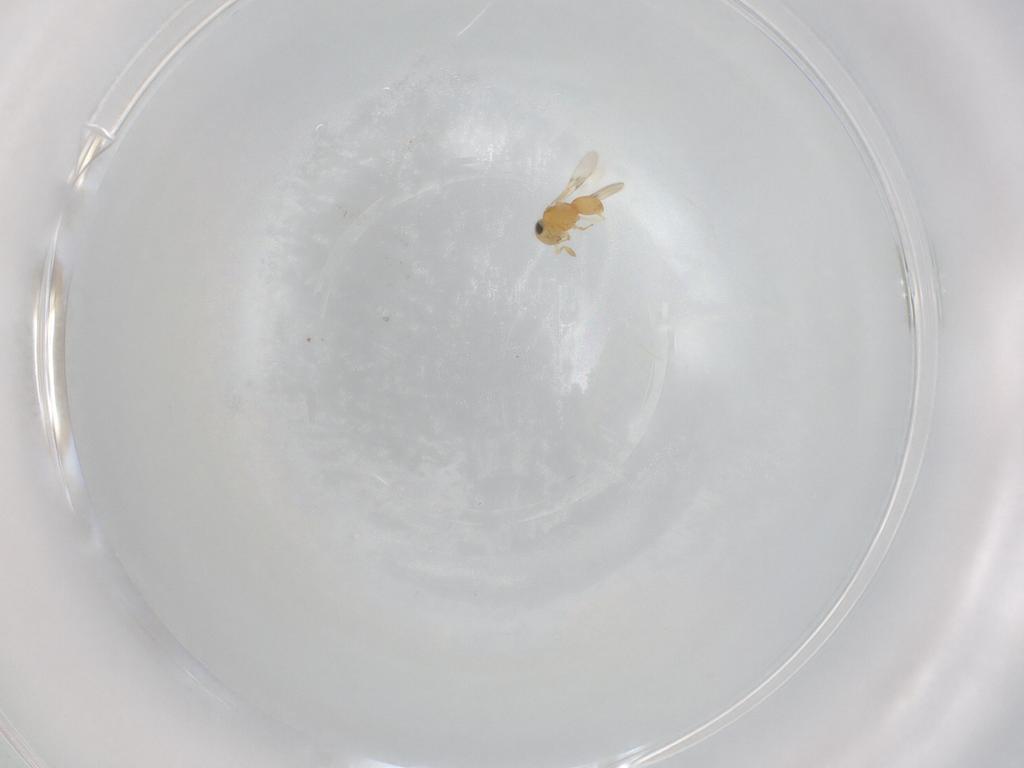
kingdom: Animalia
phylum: Arthropoda
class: Insecta
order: Hymenoptera
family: Scelionidae
